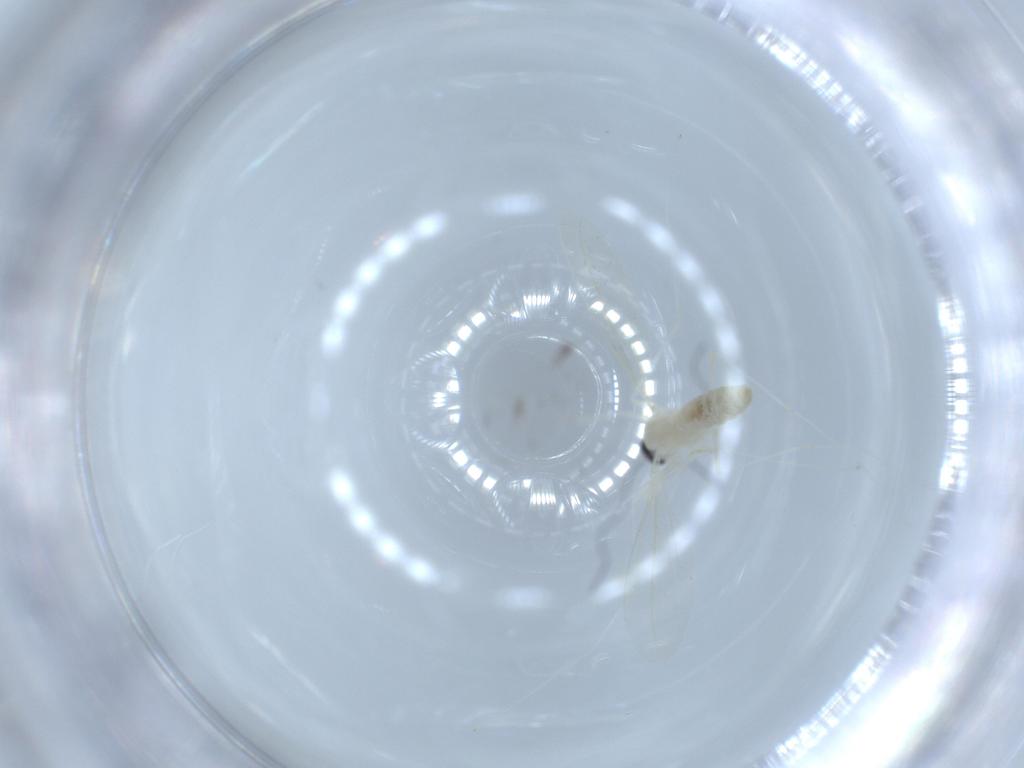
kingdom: Animalia
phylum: Arthropoda
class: Insecta
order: Diptera
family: Cecidomyiidae
